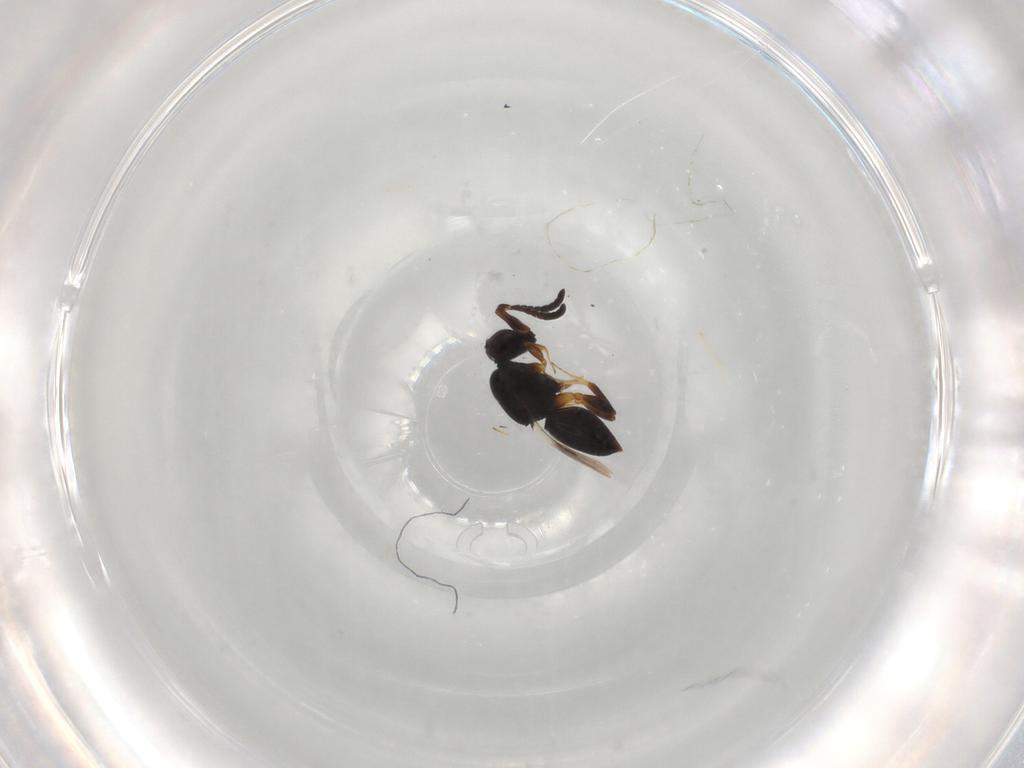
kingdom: Animalia
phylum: Arthropoda
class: Insecta
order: Hymenoptera
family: Ceraphronidae
